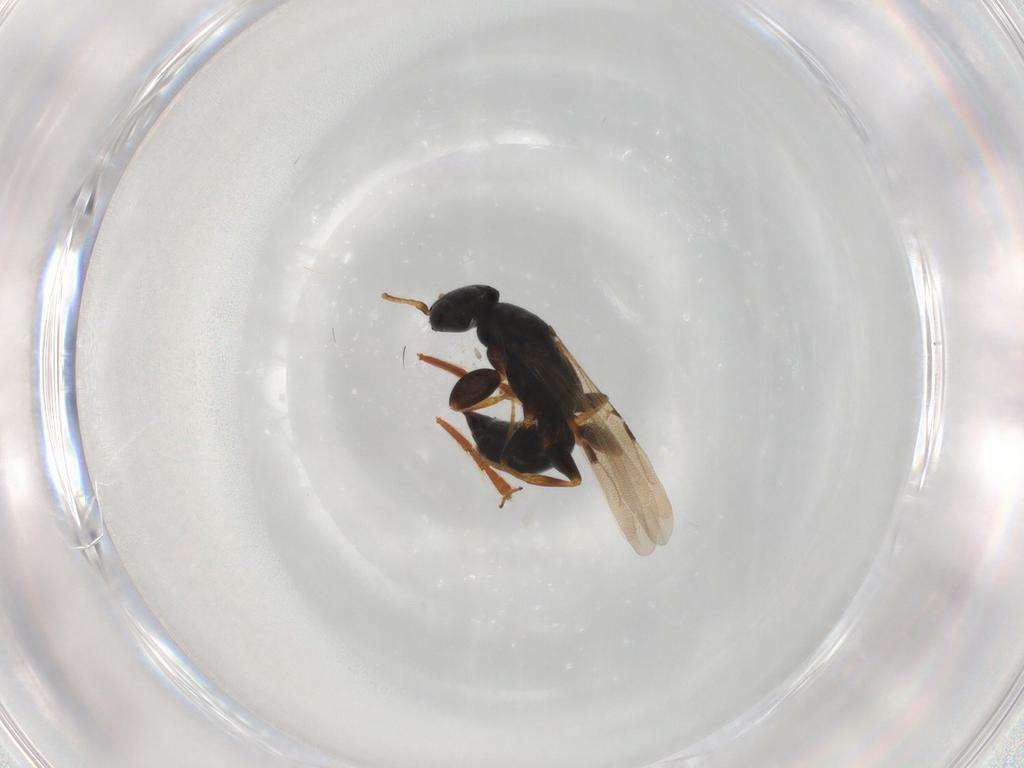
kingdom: Animalia
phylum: Arthropoda
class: Insecta
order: Hymenoptera
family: Bethylidae
